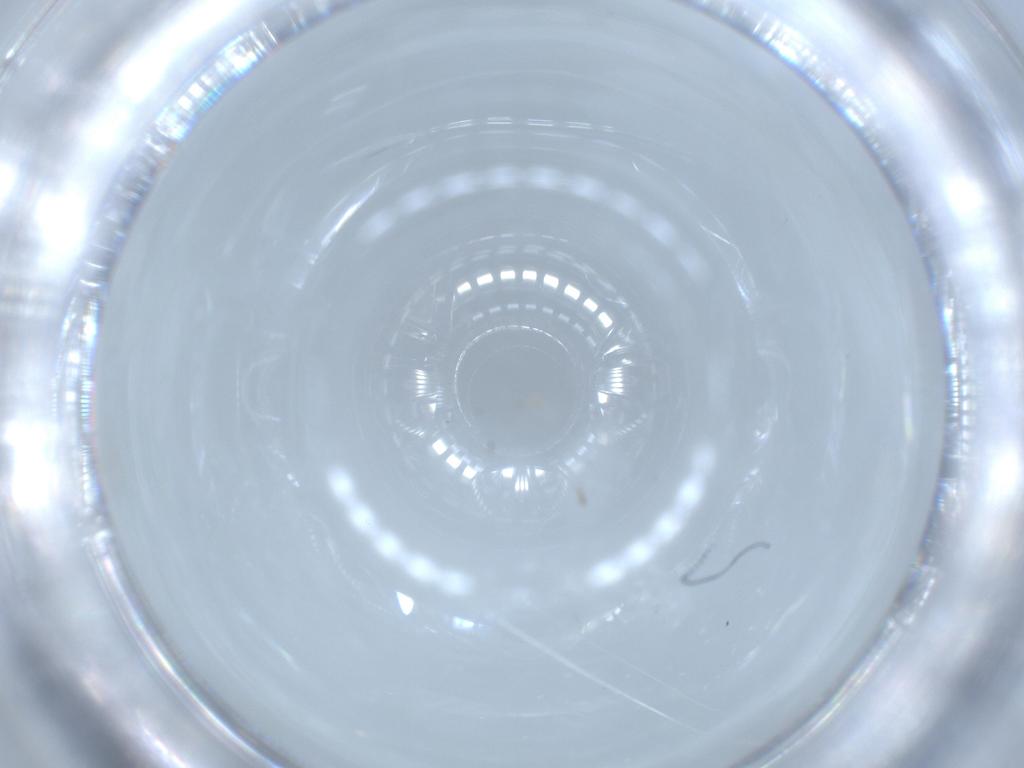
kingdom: Animalia
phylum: Arthropoda
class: Insecta
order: Diptera
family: Cecidomyiidae
